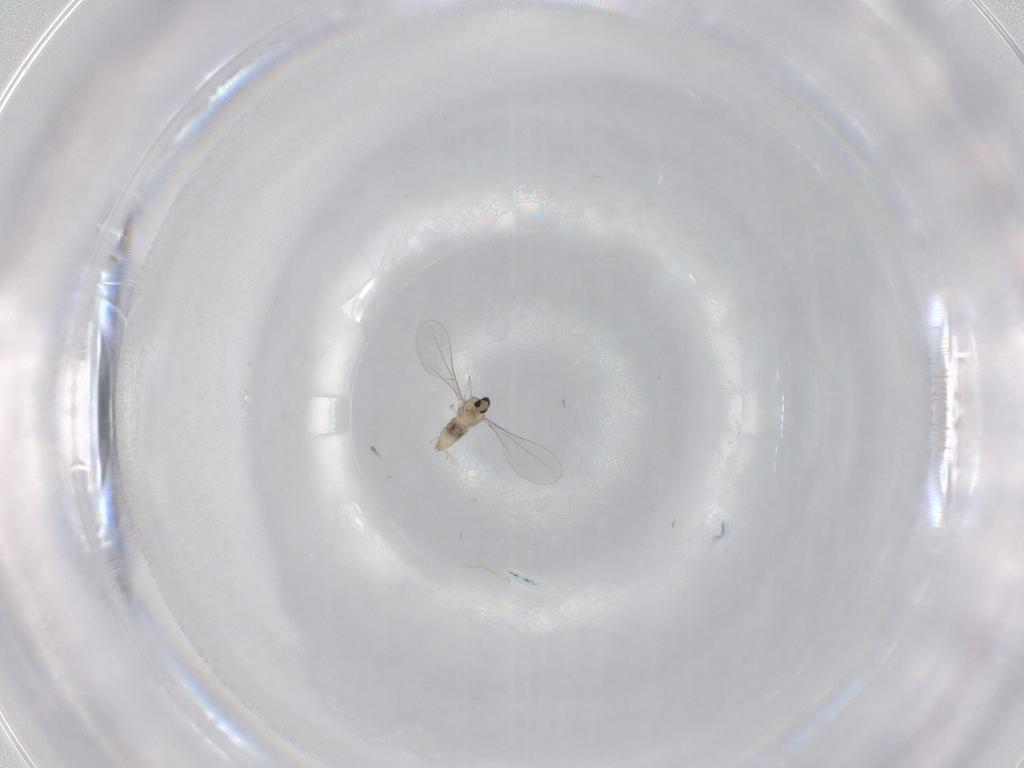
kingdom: Animalia
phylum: Arthropoda
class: Insecta
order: Diptera
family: Cecidomyiidae
